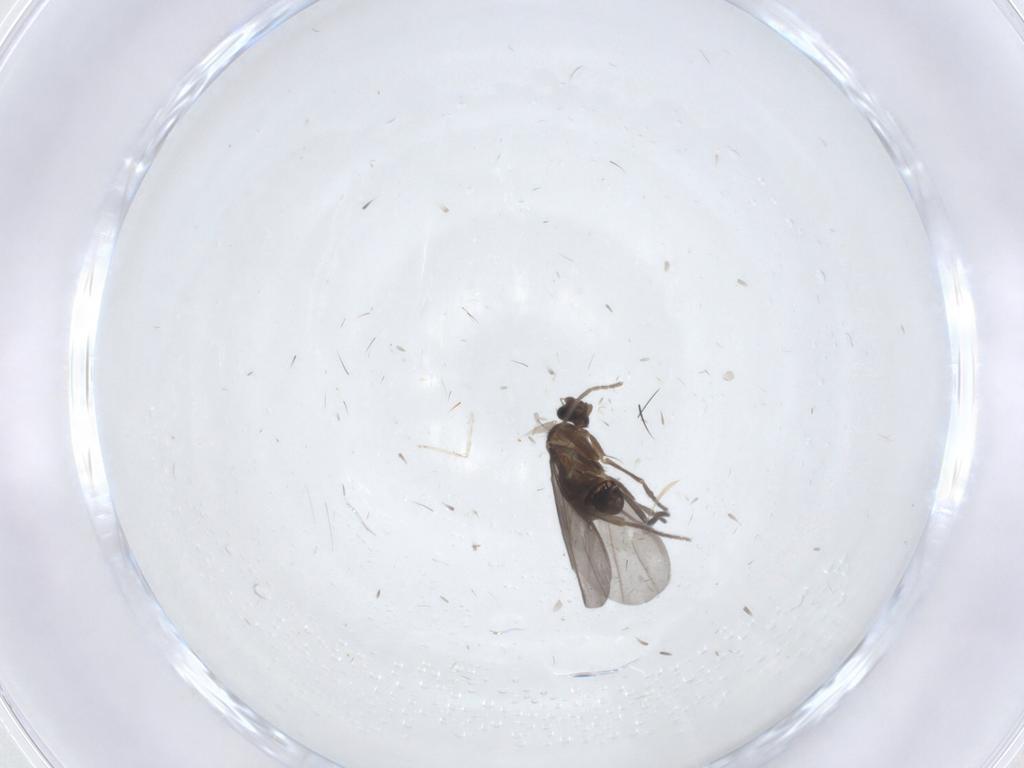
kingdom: Animalia
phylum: Arthropoda
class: Insecta
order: Diptera
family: Phoridae
